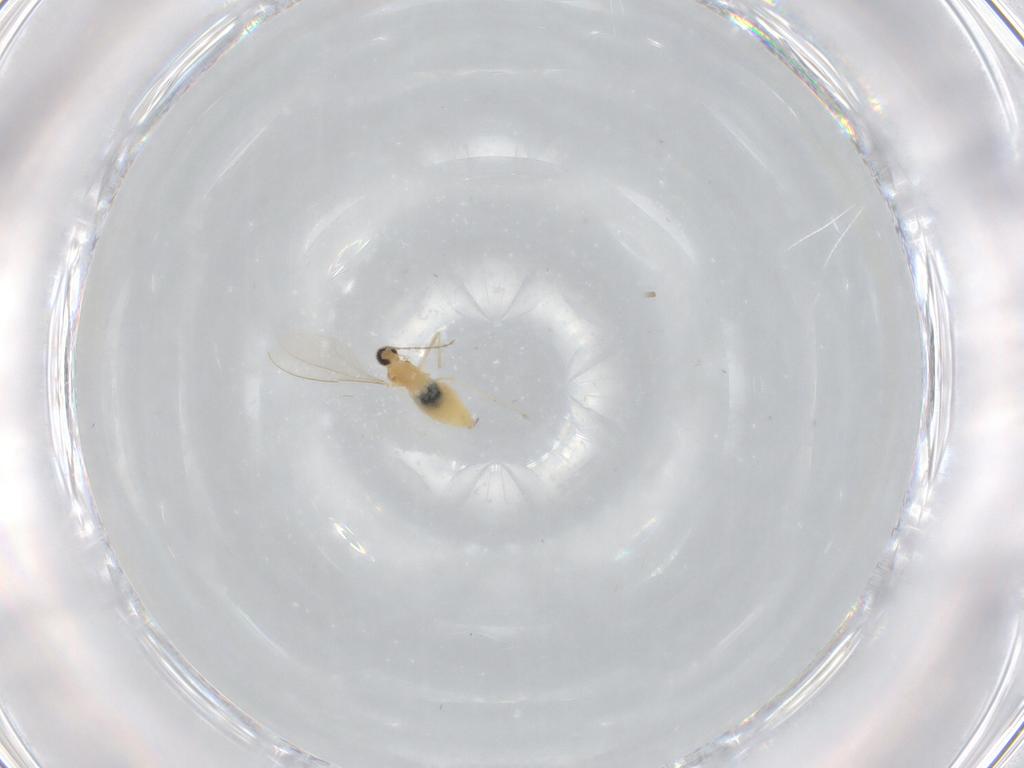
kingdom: Animalia
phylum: Arthropoda
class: Insecta
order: Diptera
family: Cecidomyiidae
